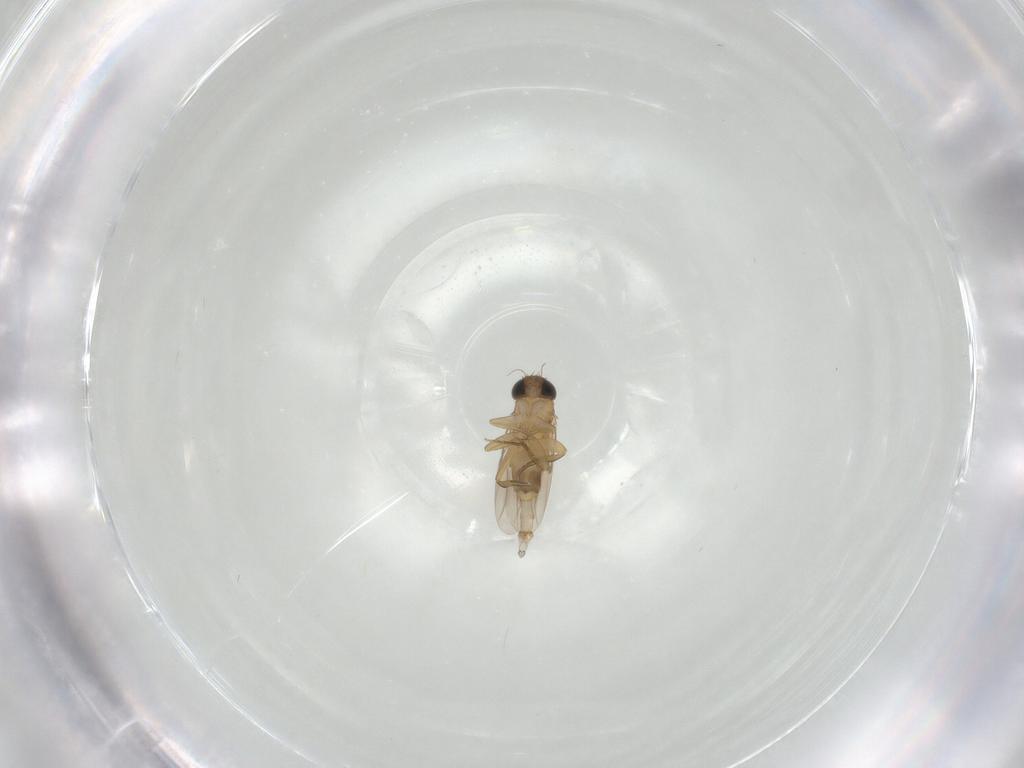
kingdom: Animalia
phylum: Arthropoda
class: Insecta
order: Diptera
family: Chironomidae
